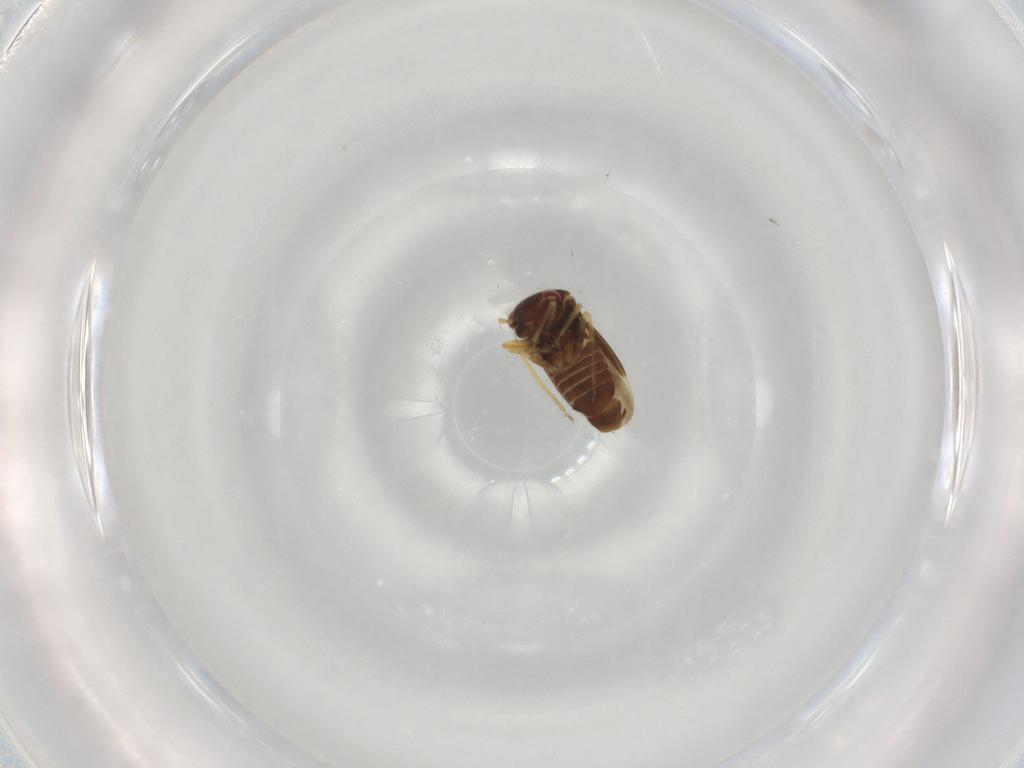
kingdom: Animalia
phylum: Arthropoda
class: Insecta
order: Hemiptera
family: Schizopteridae
